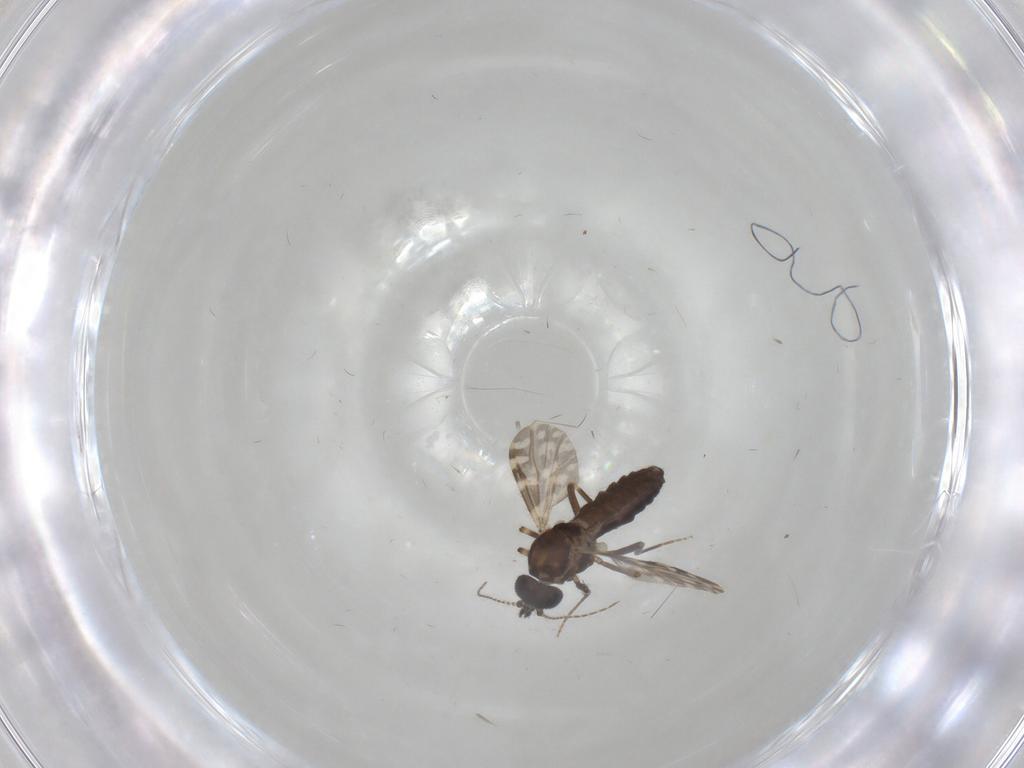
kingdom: Animalia
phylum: Arthropoda
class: Insecta
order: Diptera
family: Ceratopogonidae
